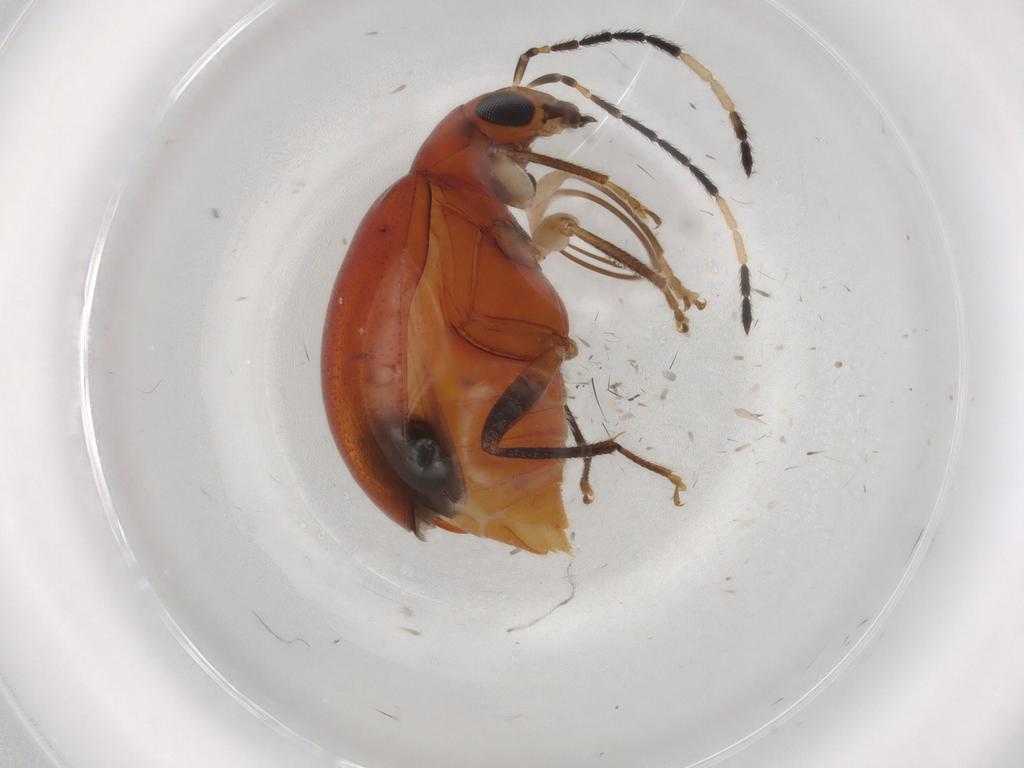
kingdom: Animalia
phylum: Arthropoda
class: Insecta
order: Coleoptera
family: Chrysomelidae
